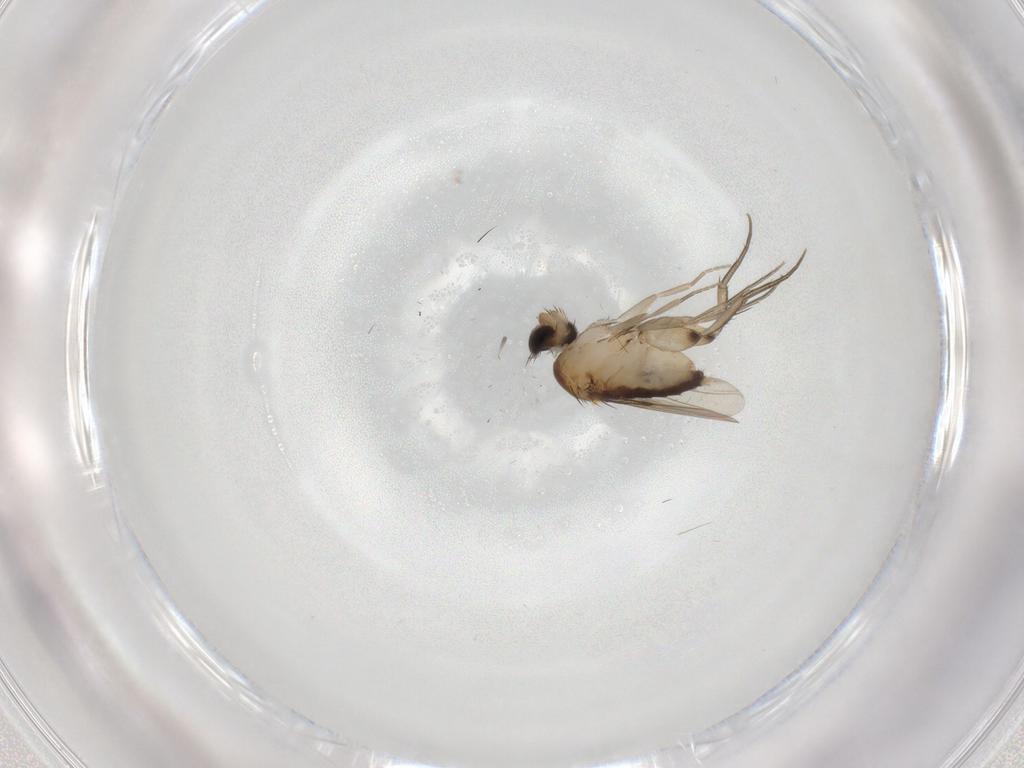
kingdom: Animalia
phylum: Arthropoda
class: Insecta
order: Diptera
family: Phoridae
